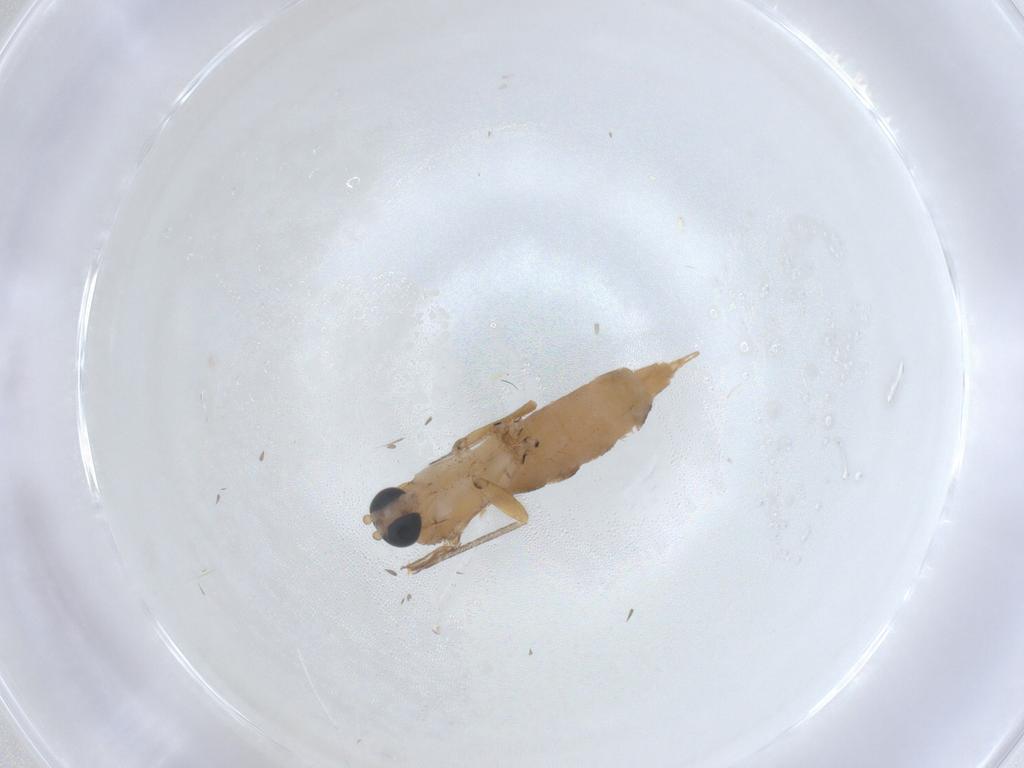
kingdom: Animalia
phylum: Arthropoda
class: Insecta
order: Diptera
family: Sciaridae
